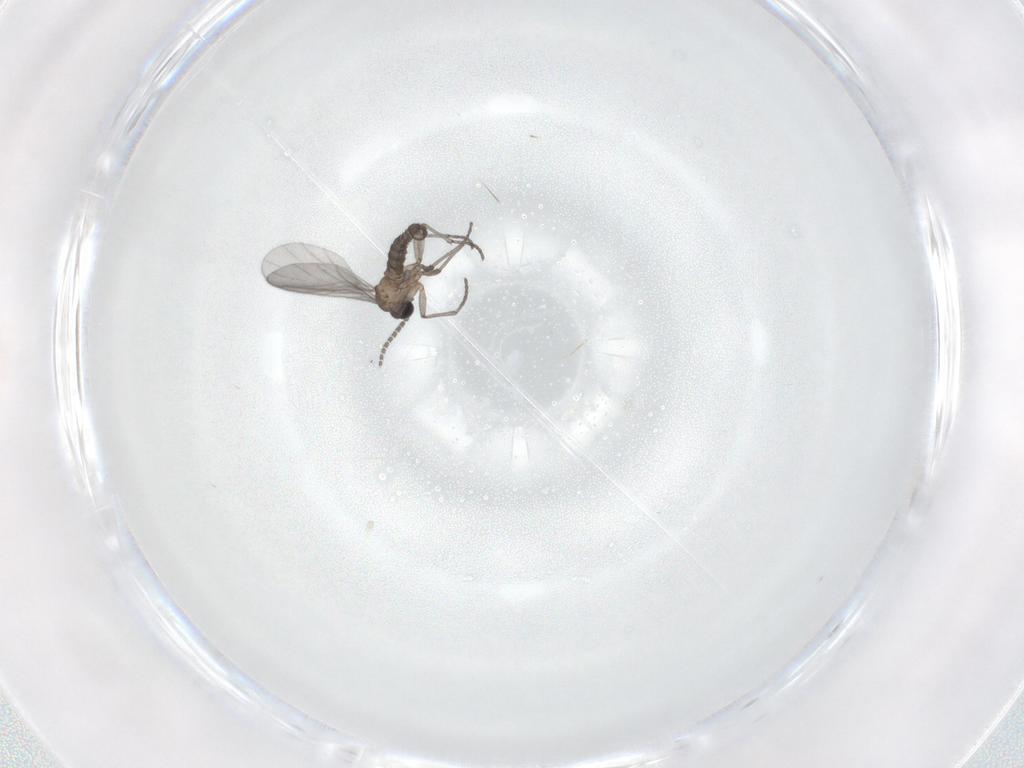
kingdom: Animalia
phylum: Arthropoda
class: Insecta
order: Diptera
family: Sciaridae
